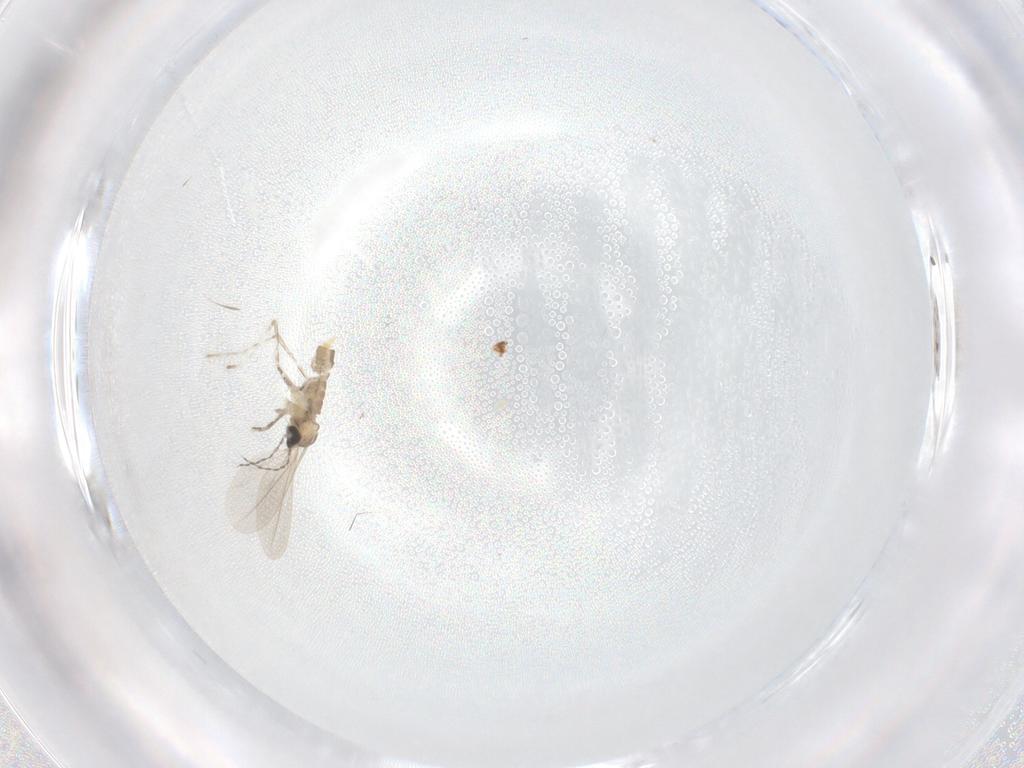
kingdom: Animalia
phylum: Arthropoda
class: Insecta
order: Diptera
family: Cecidomyiidae
